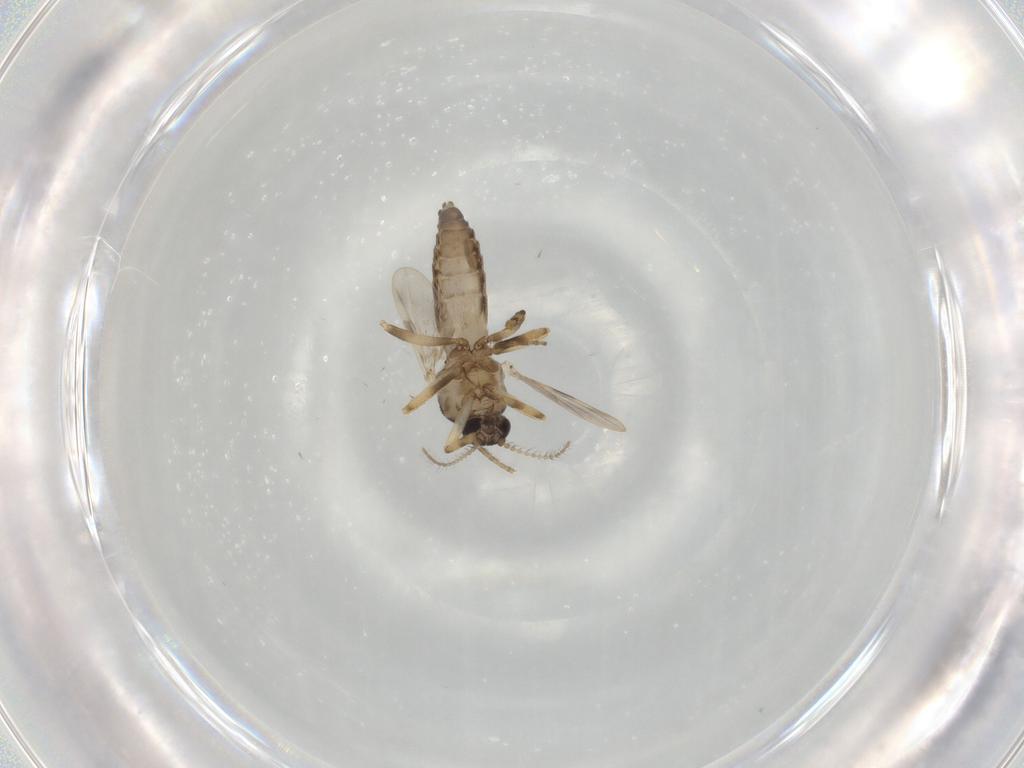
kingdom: Animalia
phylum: Arthropoda
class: Insecta
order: Diptera
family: Ceratopogonidae
